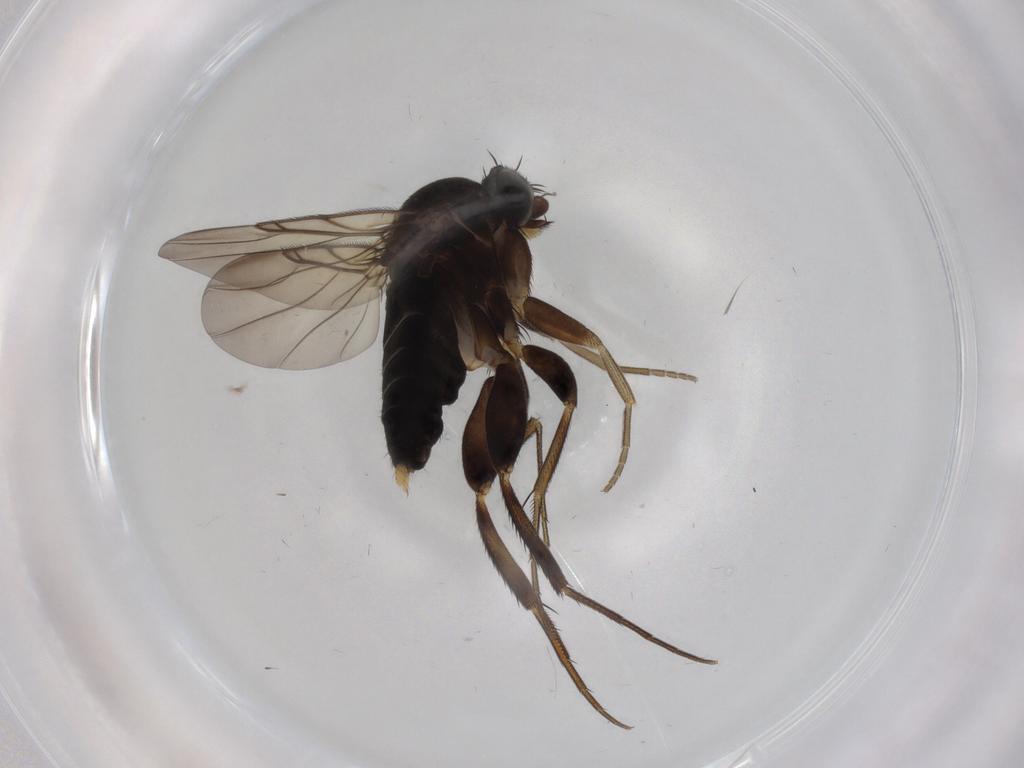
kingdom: Animalia
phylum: Arthropoda
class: Insecta
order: Diptera
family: Phoridae
